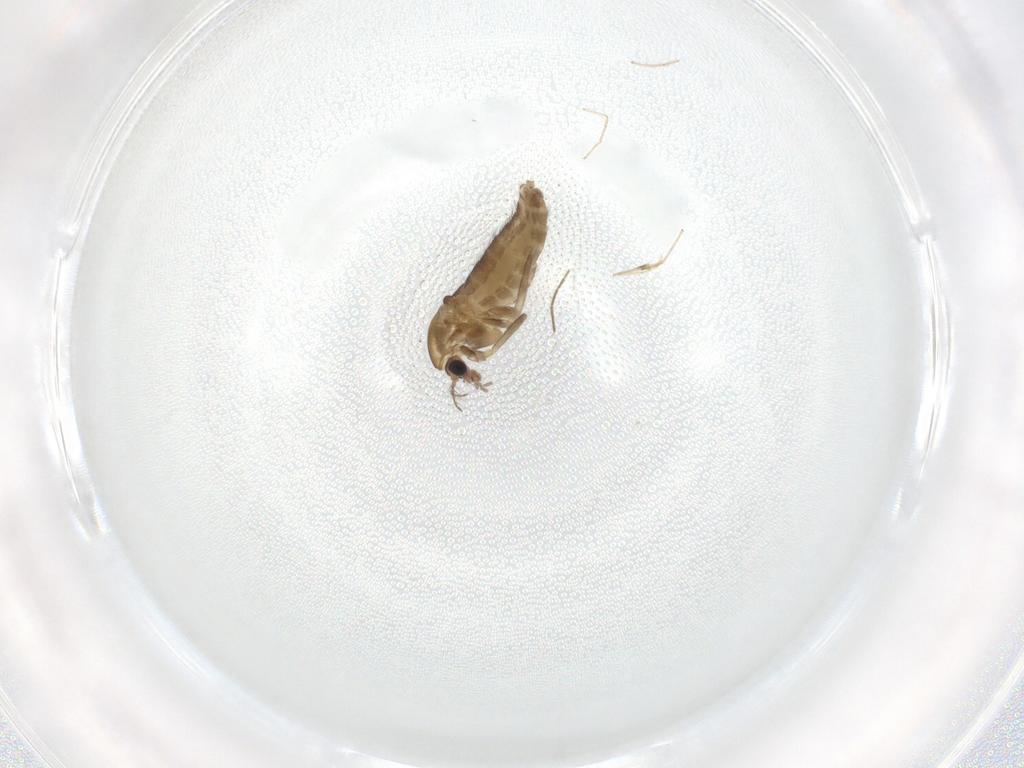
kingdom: Animalia
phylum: Arthropoda
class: Insecta
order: Diptera
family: Chironomidae
